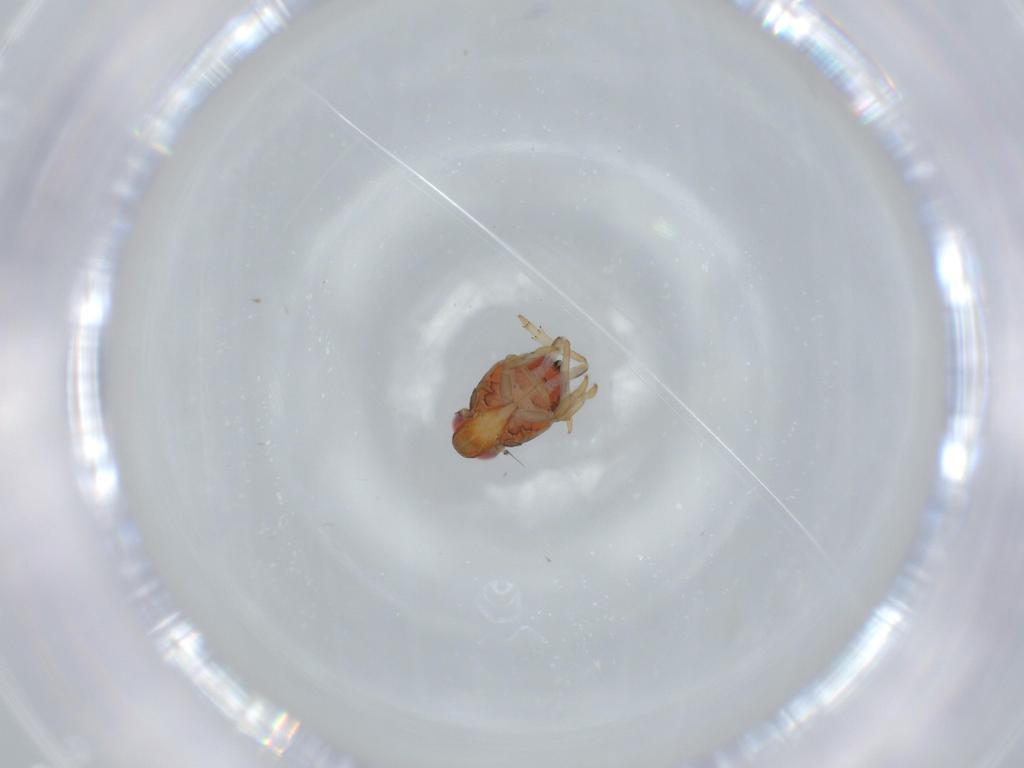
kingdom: Animalia
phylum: Arthropoda
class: Insecta
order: Hemiptera
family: Issidae
